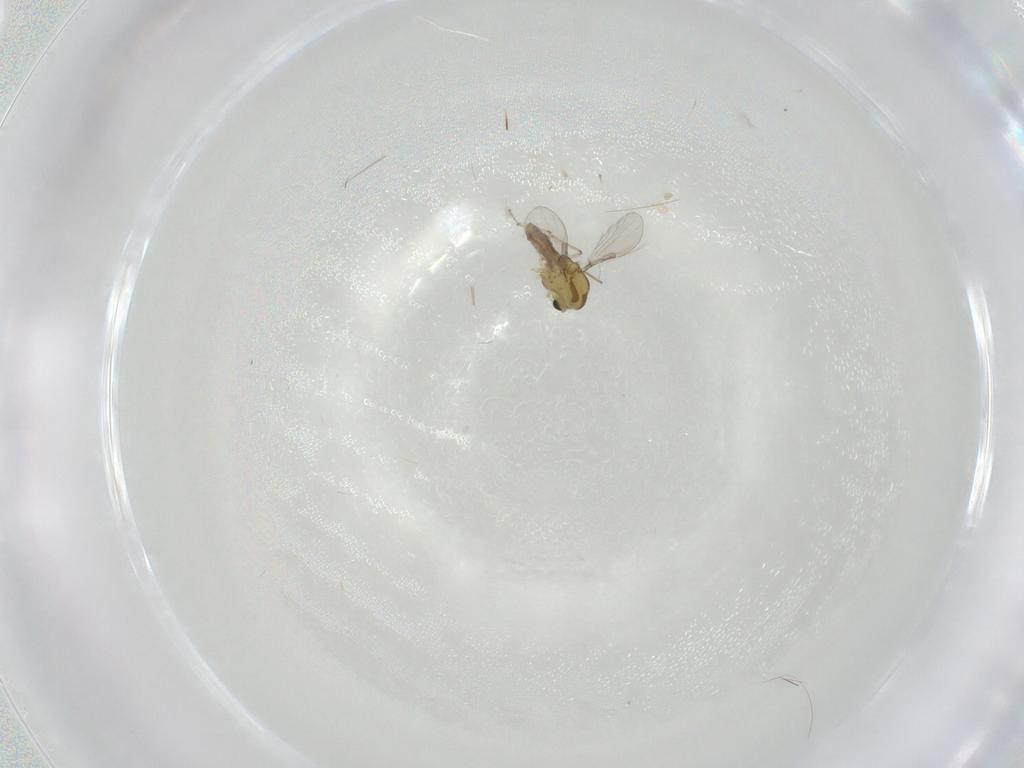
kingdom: Animalia
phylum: Arthropoda
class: Insecta
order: Diptera
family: Chironomidae
